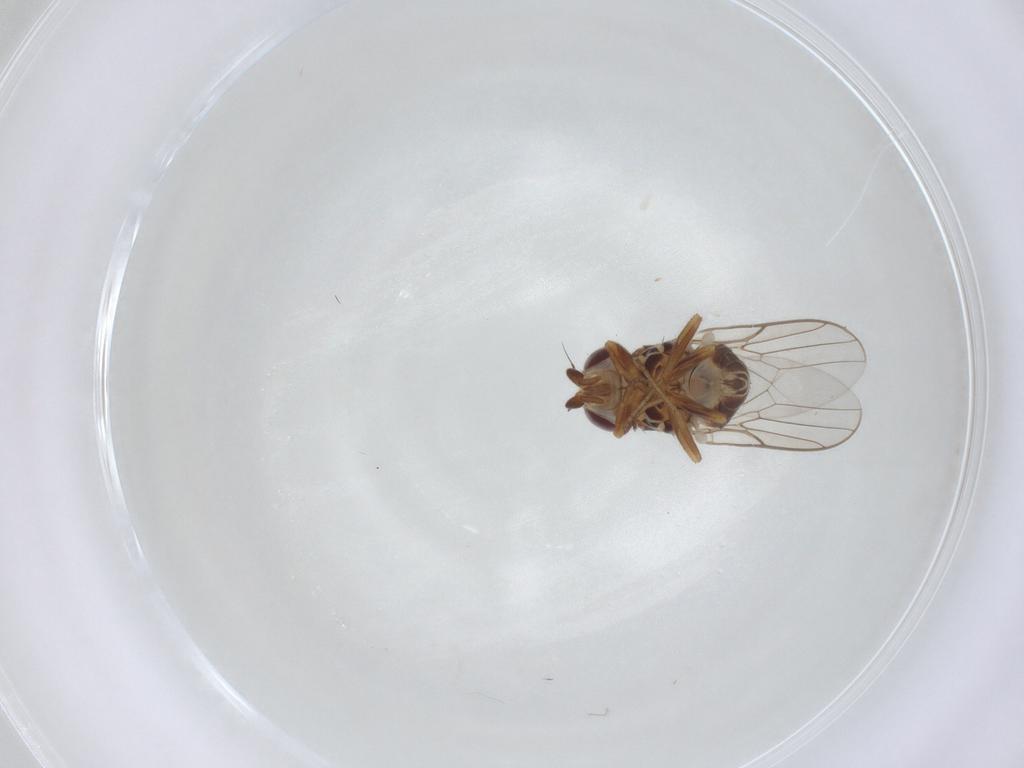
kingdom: Animalia
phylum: Arthropoda
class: Insecta
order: Diptera
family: Chloropidae
